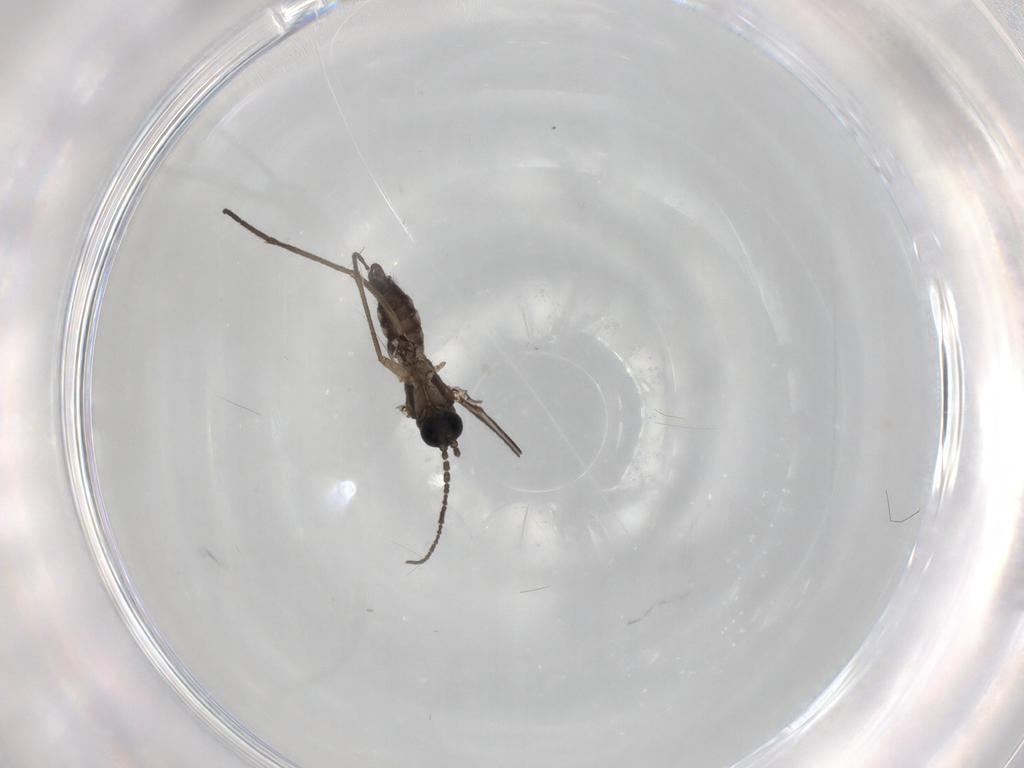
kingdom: Animalia
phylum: Arthropoda
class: Insecta
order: Diptera
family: Sciaridae
